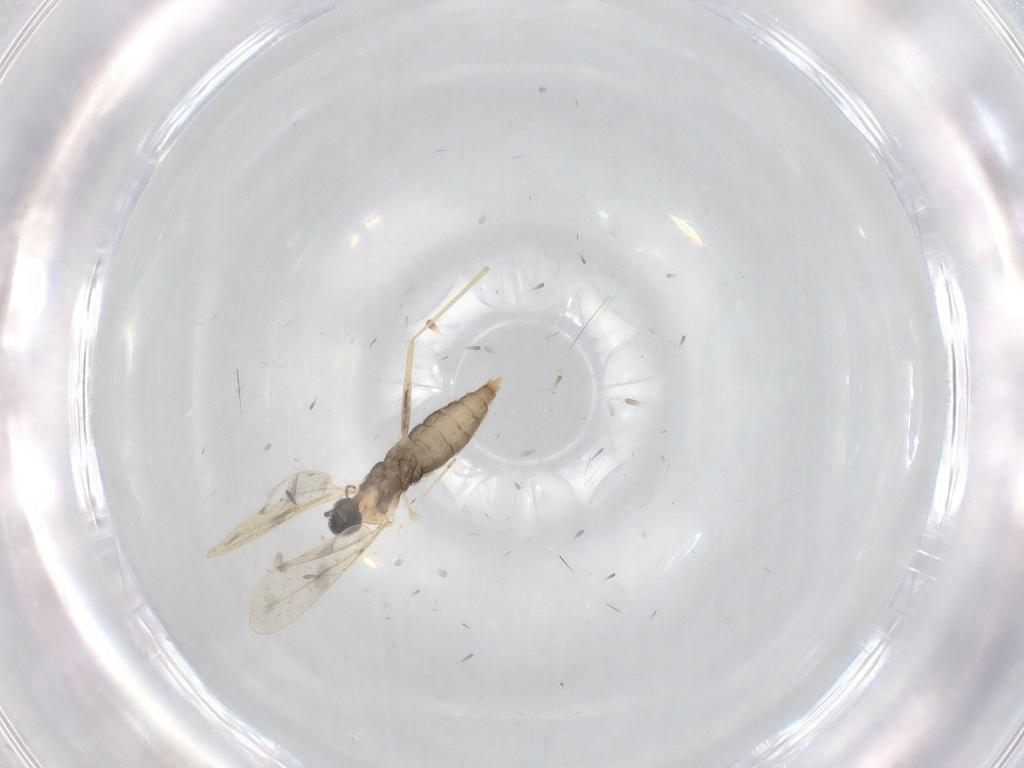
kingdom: Animalia
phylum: Arthropoda
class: Insecta
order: Diptera
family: Cecidomyiidae
